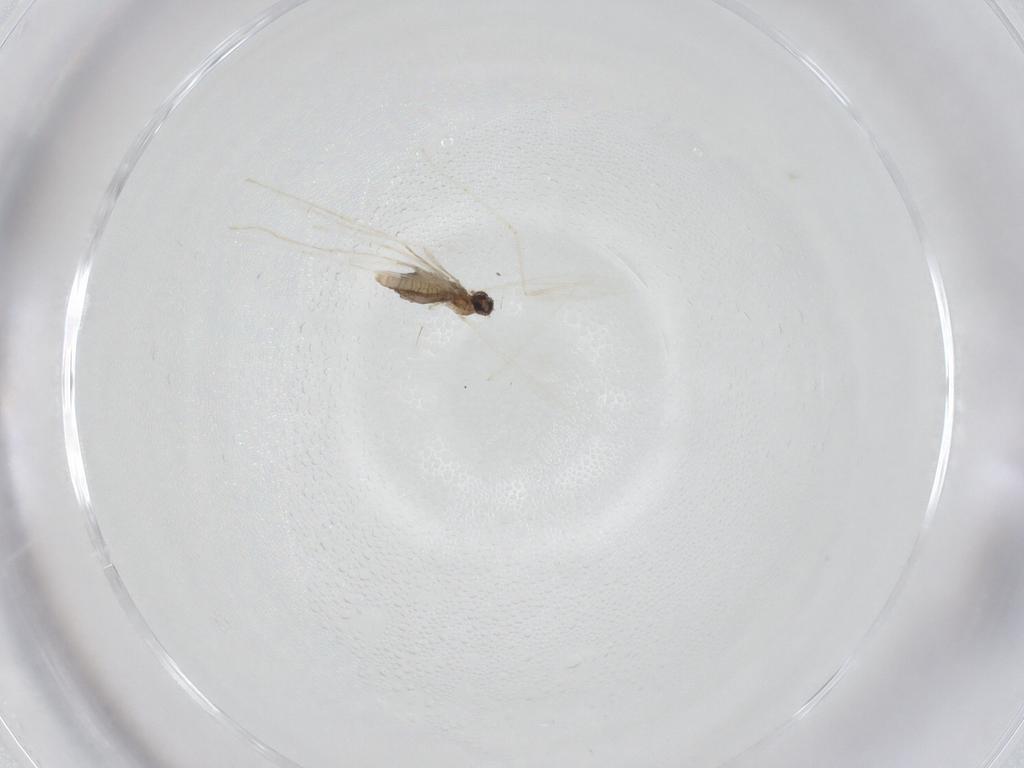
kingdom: Animalia
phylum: Arthropoda
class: Insecta
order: Diptera
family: Cecidomyiidae
